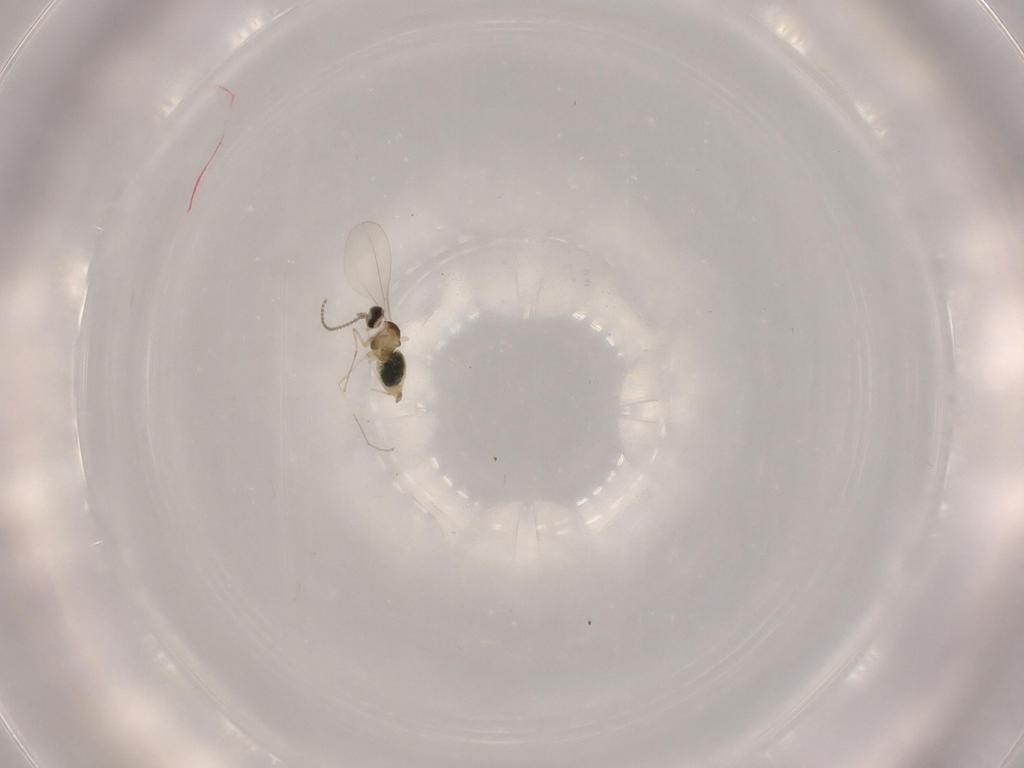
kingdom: Animalia
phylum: Arthropoda
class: Insecta
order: Diptera
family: Cecidomyiidae
